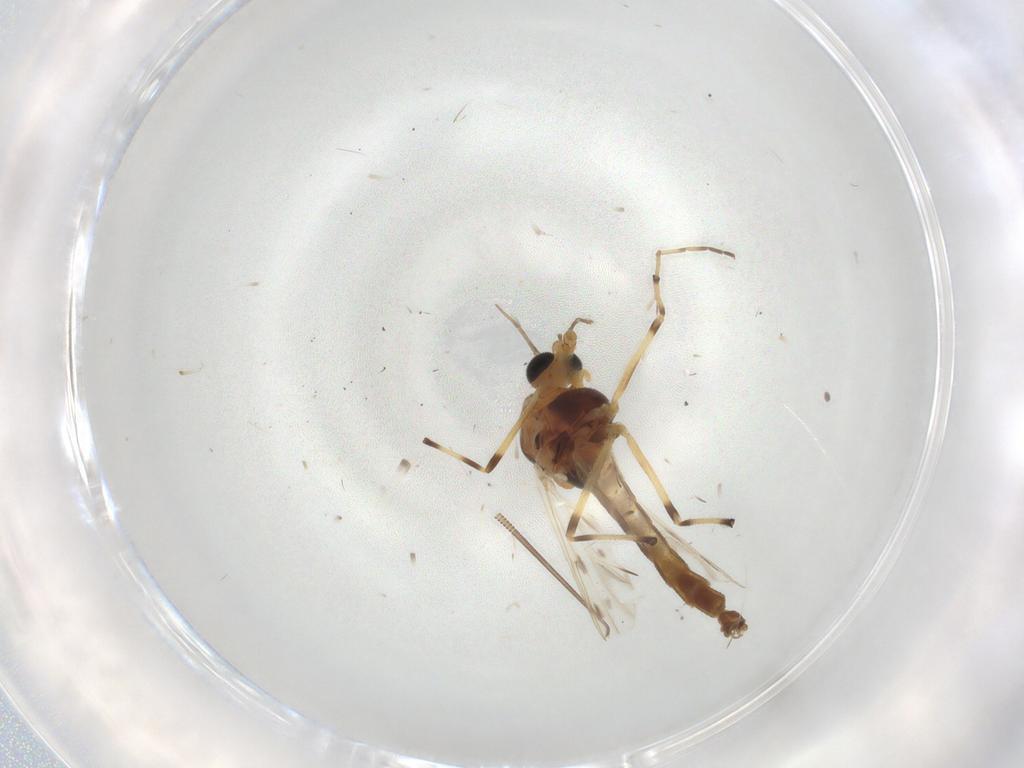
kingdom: Animalia
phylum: Arthropoda
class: Insecta
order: Diptera
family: Chironomidae
